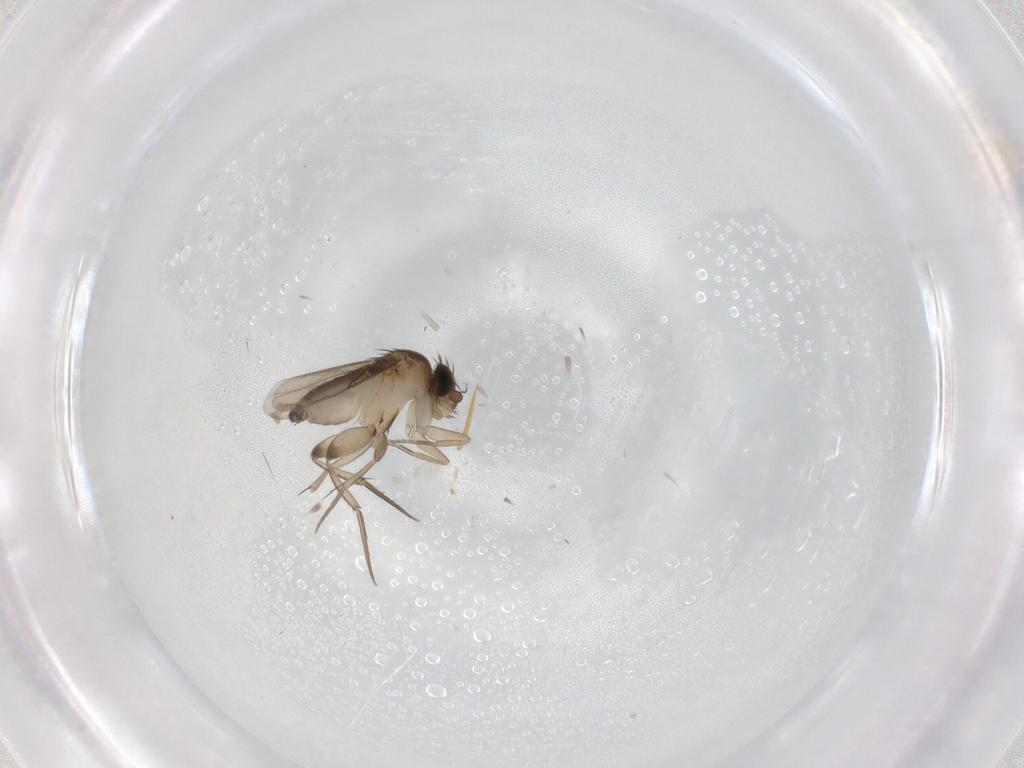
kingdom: Animalia
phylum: Arthropoda
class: Insecta
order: Diptera
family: Phoridae
